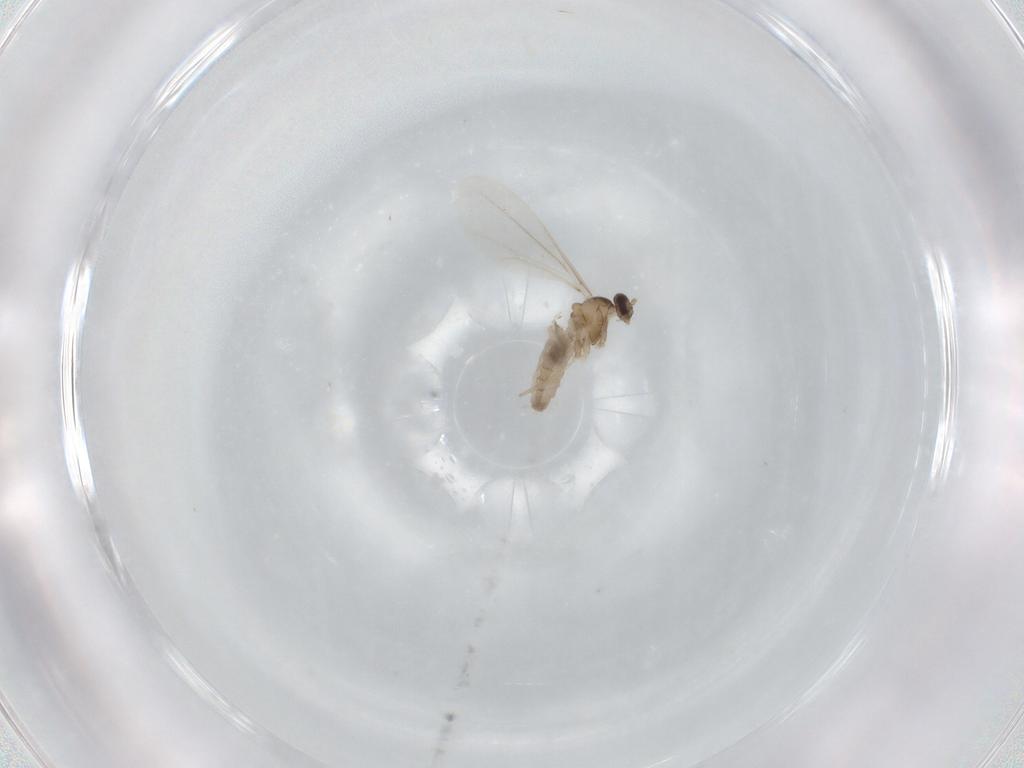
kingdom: Animalia
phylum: Arthropoda
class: Insecta
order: Diptera
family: Cecidomyiidae
